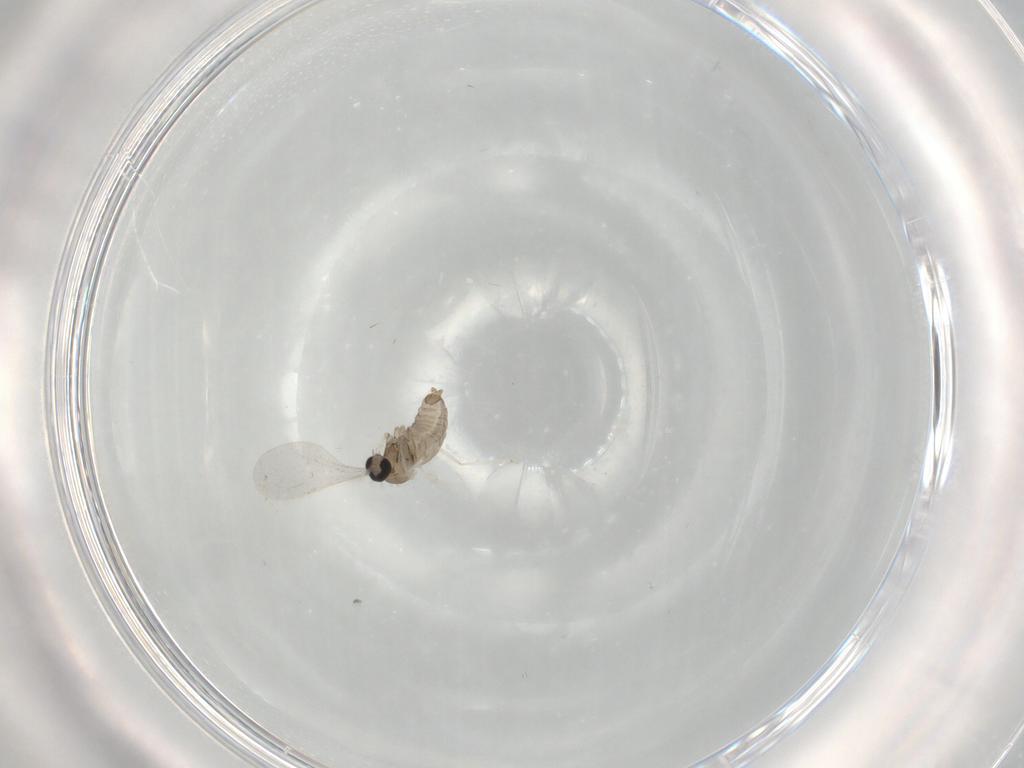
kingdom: Animalia
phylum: Arthropoda
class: Insecta
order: Diptera
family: Cecidomyiidae
